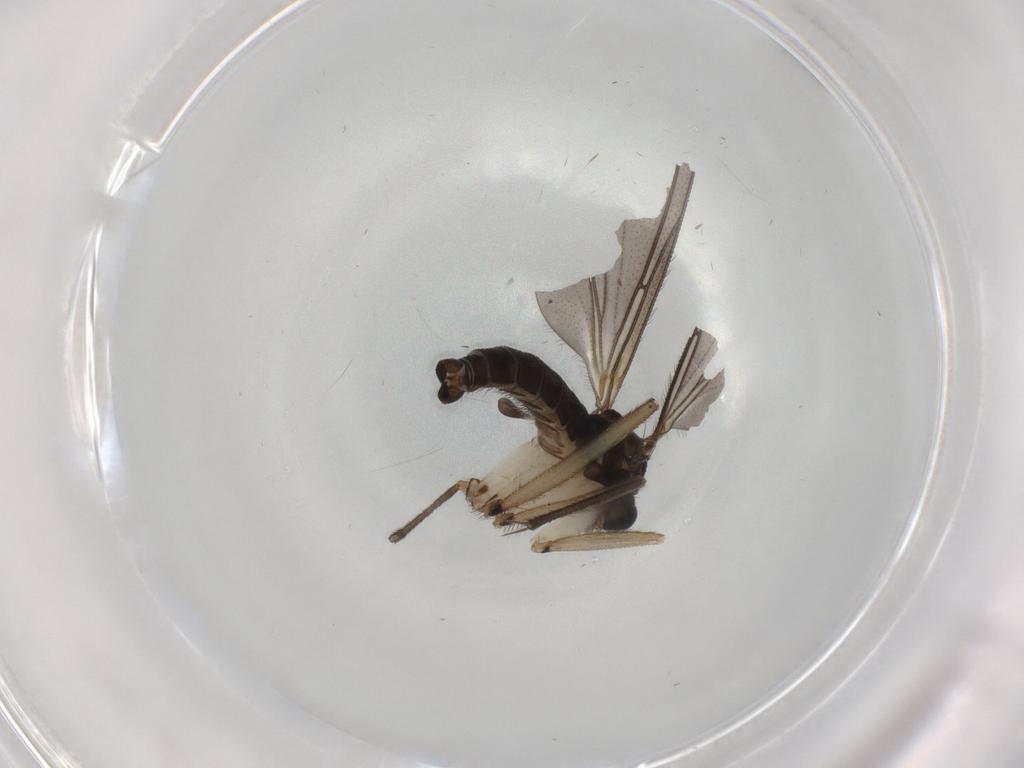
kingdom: Animalia
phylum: Arthropoda
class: Insecta
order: Diptera
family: Sciaridae
